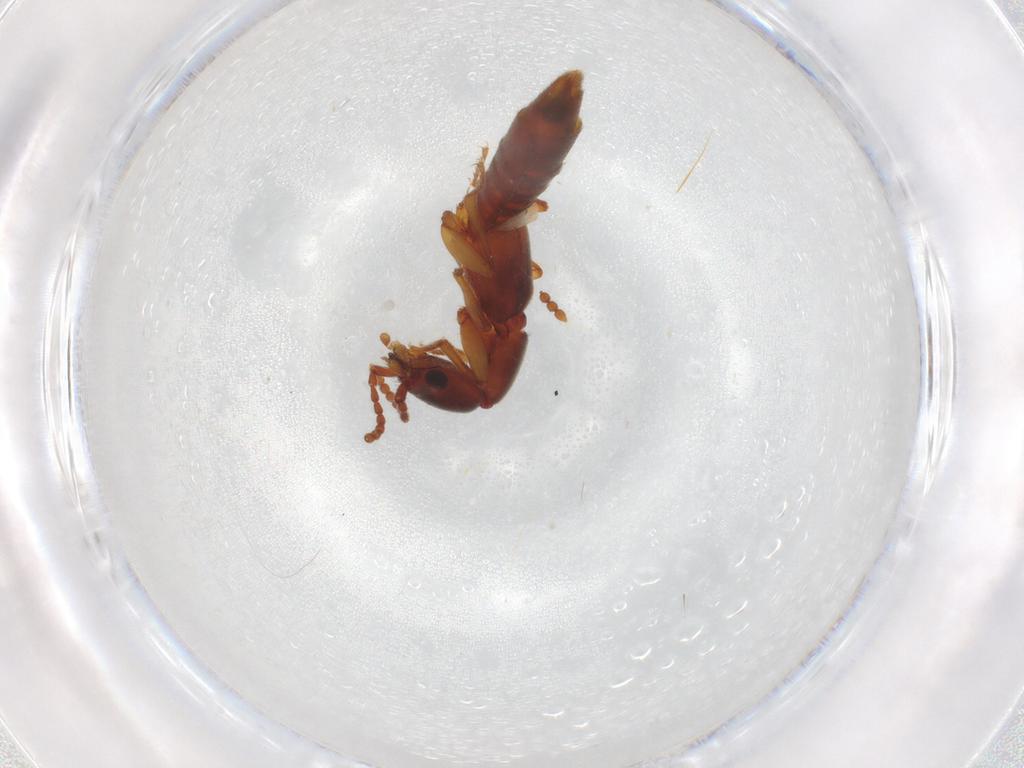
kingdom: Animalia
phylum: Arthropoda
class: Insecta
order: Coleoptera
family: Staphylinidae
